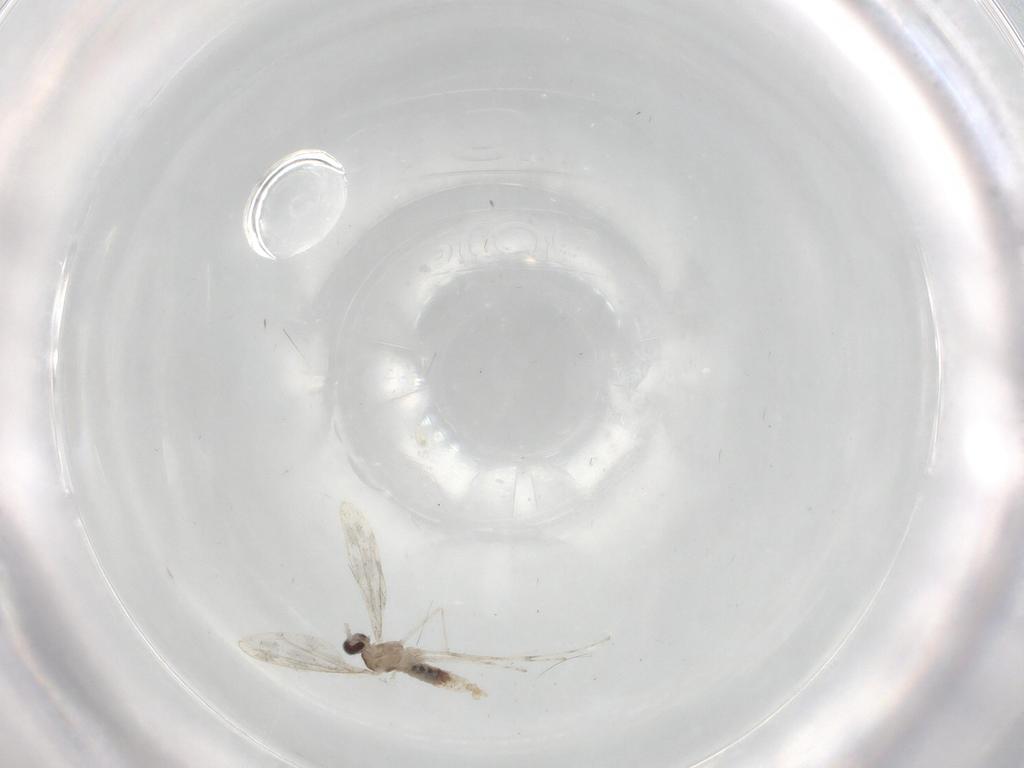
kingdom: Animalia
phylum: Arthropoda
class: Insecta
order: Diptera
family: Cecidomyiidae
